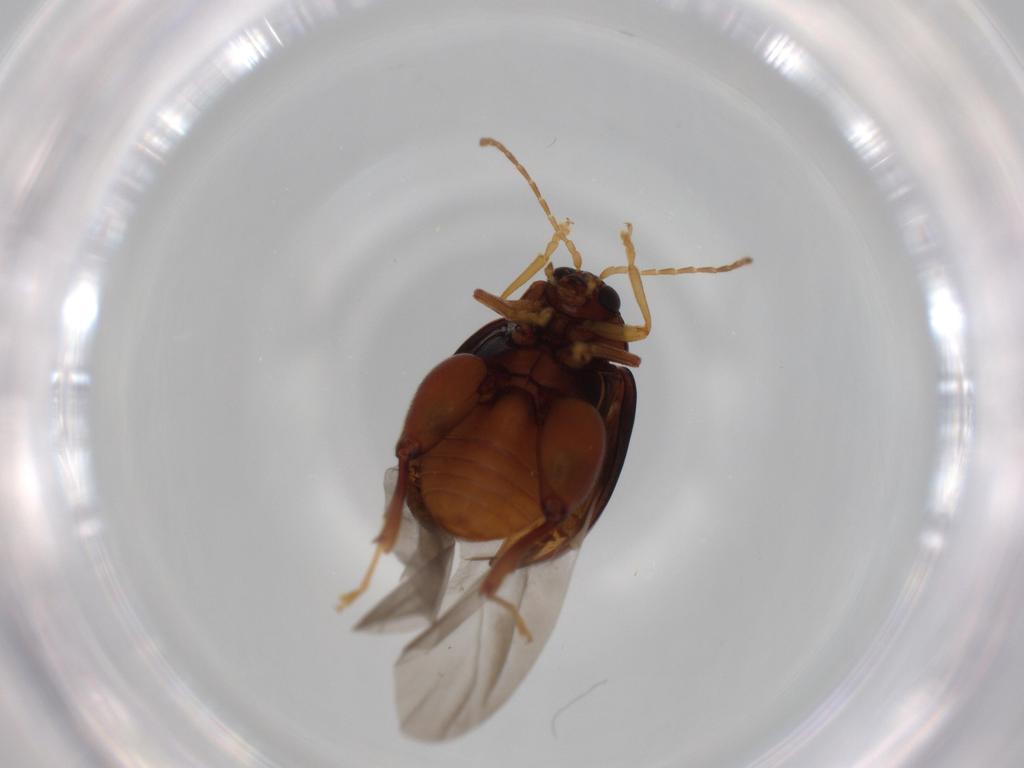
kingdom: Animalia
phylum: Arthropoda
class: Insecta
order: Coleoptera
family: Chrysomelidae
